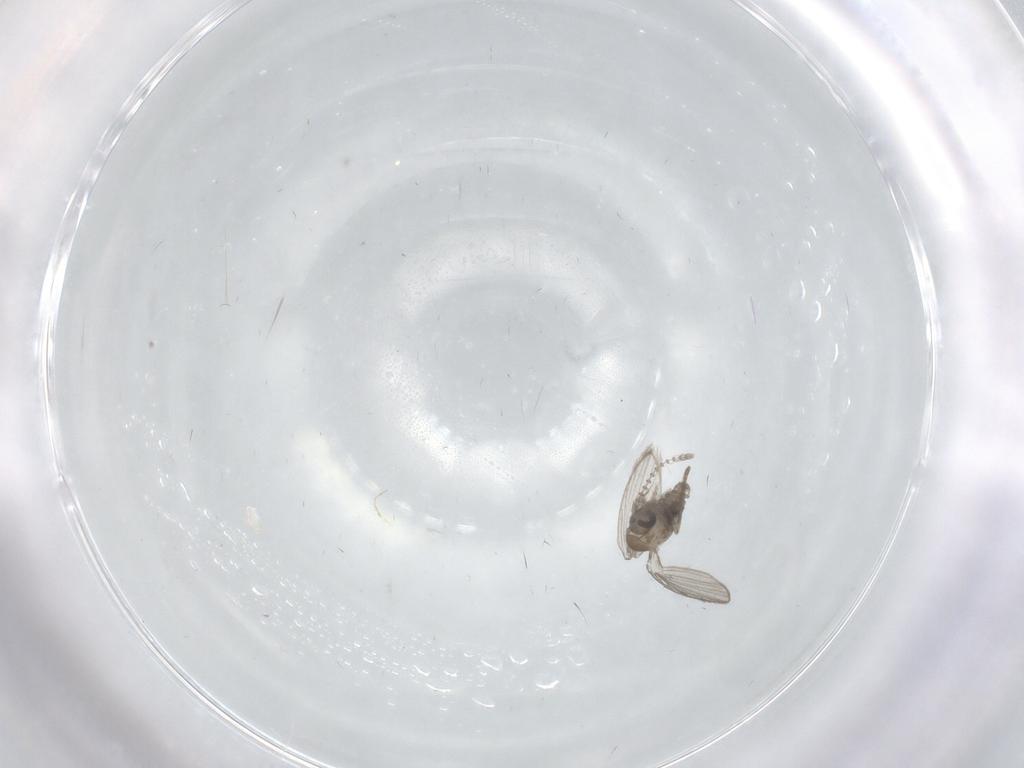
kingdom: Animalia
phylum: Arthropoda
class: Insecta
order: Diptera
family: Psychodidae
